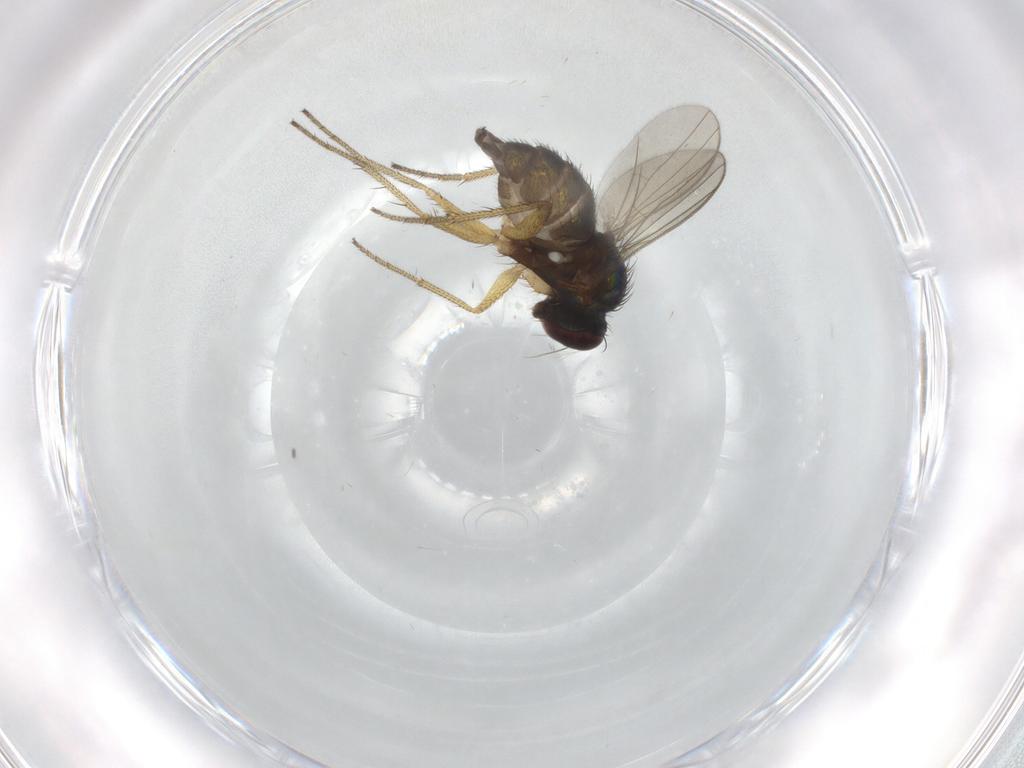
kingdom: Animalia
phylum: Arthropoda
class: Insecta
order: Diptera
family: Dolichopodidae
